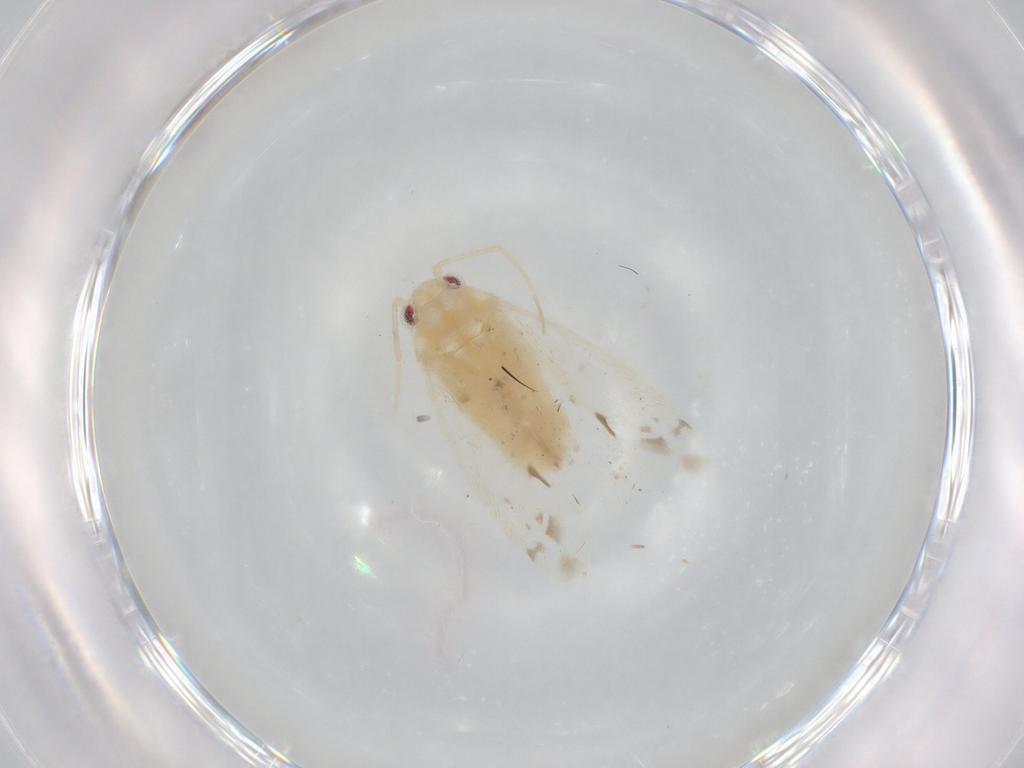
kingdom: Animalia
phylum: Arthropoda
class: Insecta
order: Hemiptera
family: Miridae
